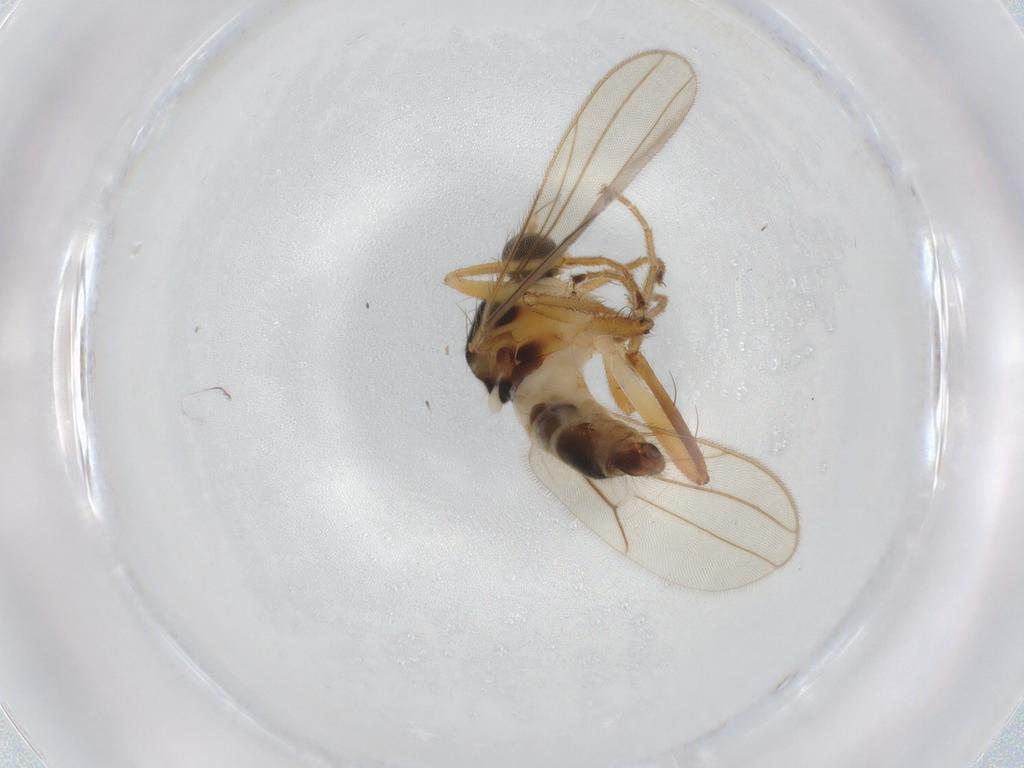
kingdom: Animalia
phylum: Arthropoda
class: Insecta
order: Diptera
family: Hybotidae
